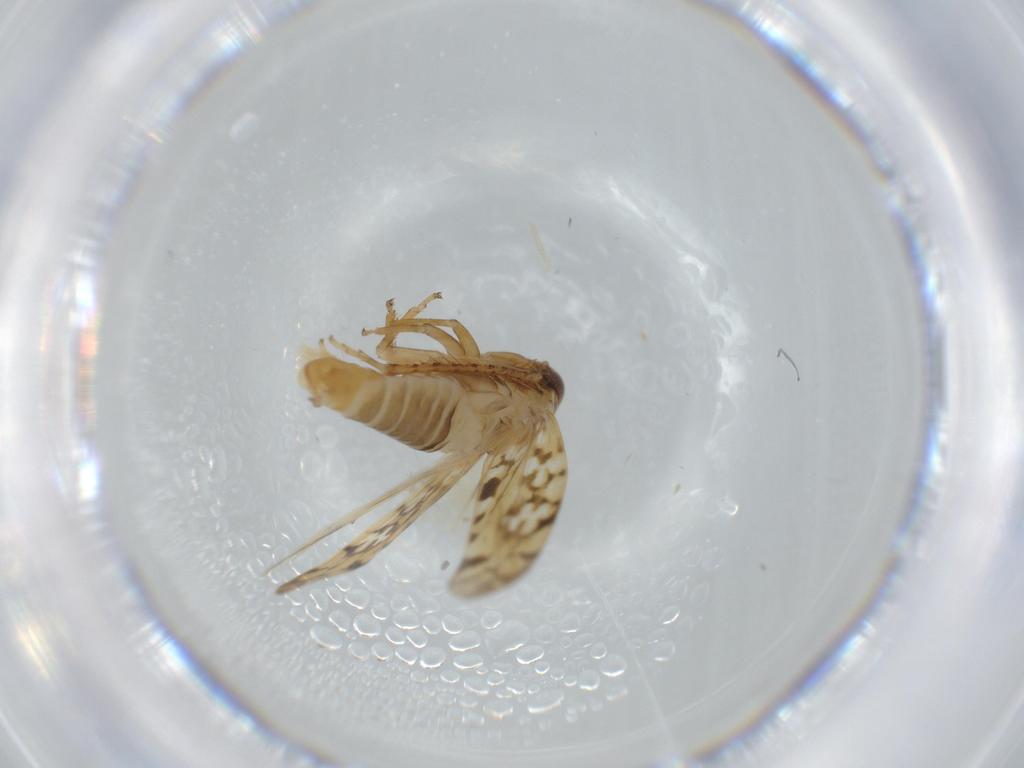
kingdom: Animalia
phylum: Arthropoda
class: Insecta
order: Hemiptera
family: Cicadellidae
